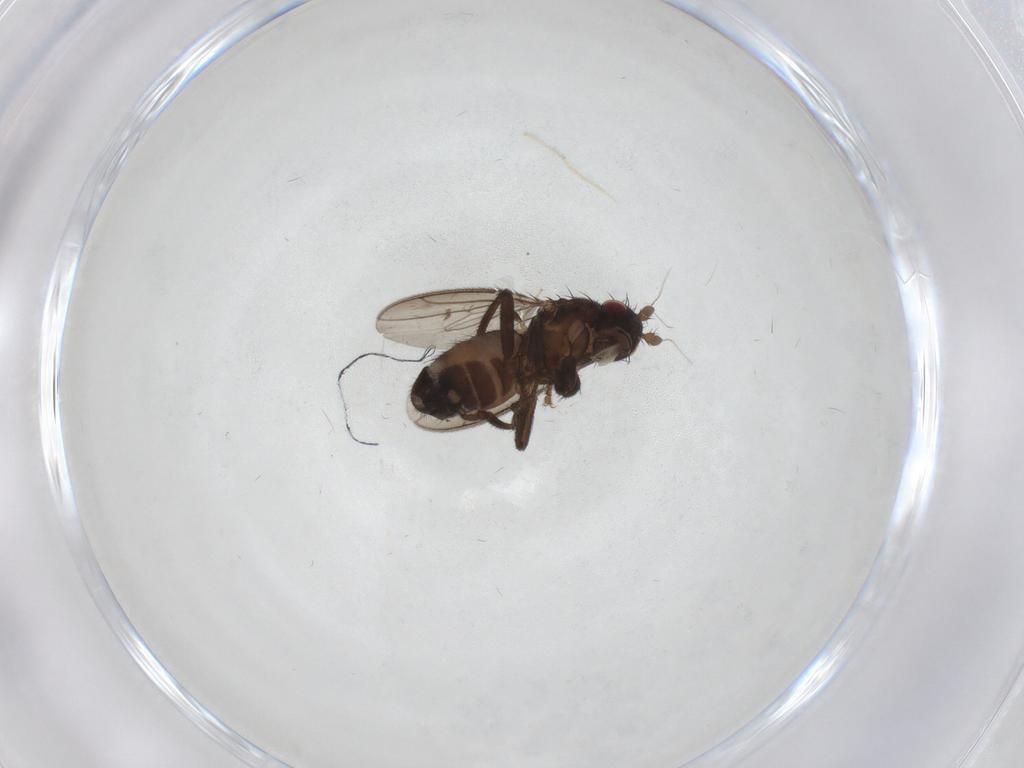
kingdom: Animalia
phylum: Arthropoda
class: Insecta
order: Diptera
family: Sphaeroceridae
